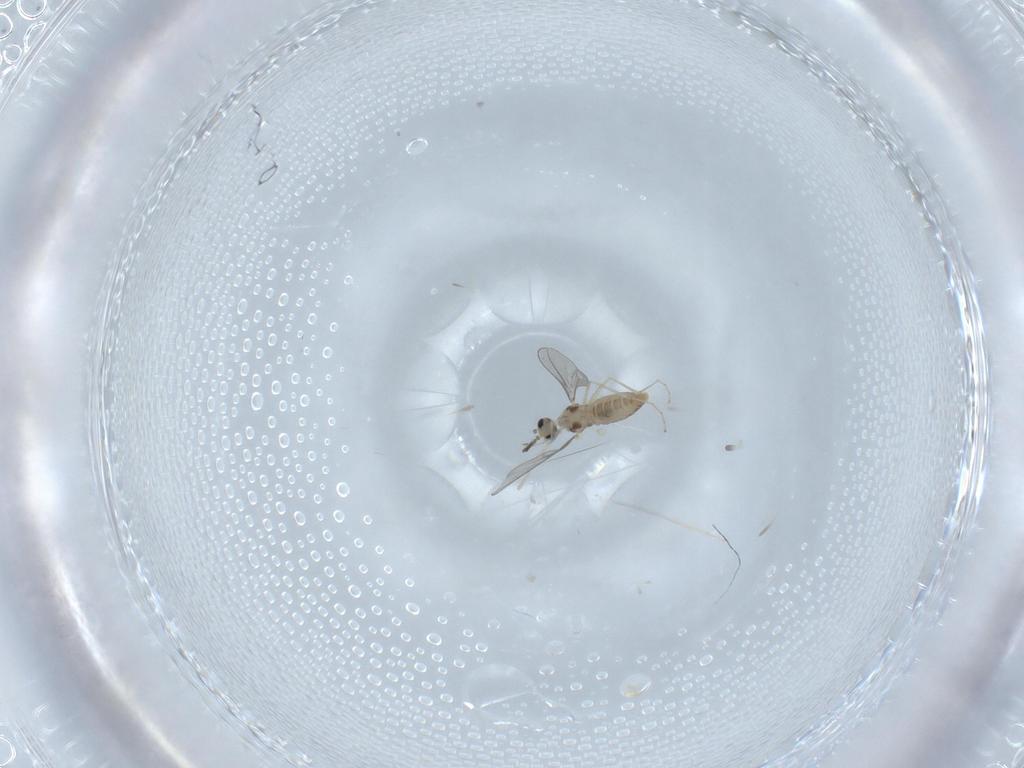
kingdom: Animalia
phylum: Arthropoda
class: Insecta
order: Diptera
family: Cecidomyiidae
